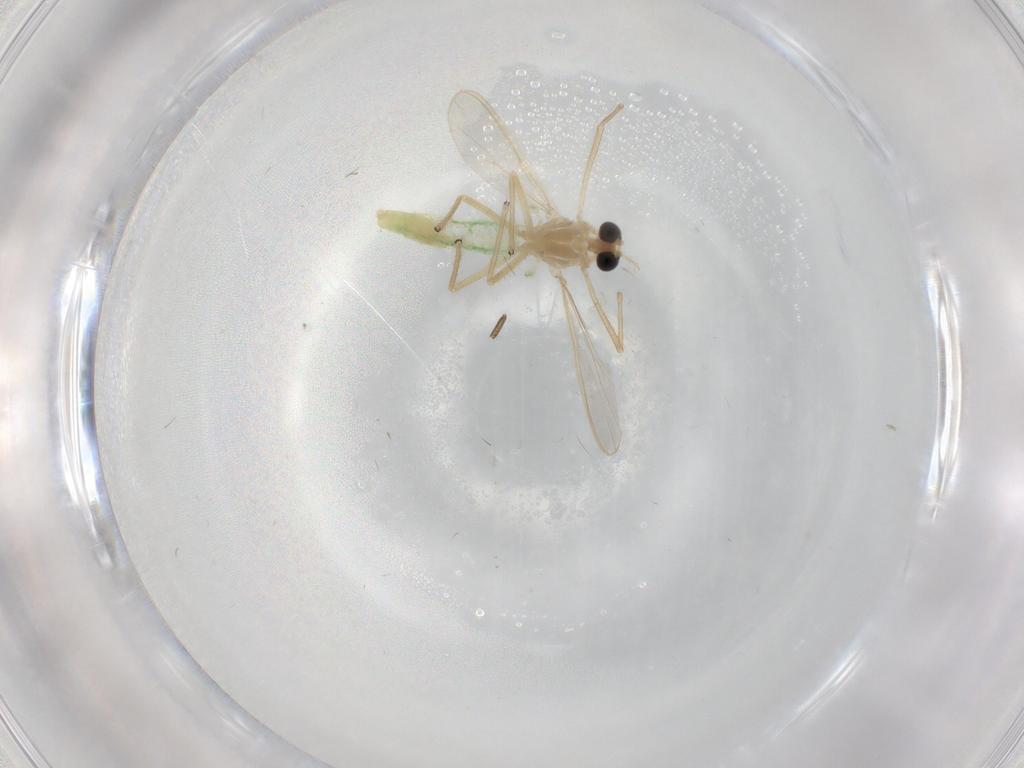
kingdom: Animalia
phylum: Arthropoda
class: Insecta
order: Diptera
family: Chironomidae
